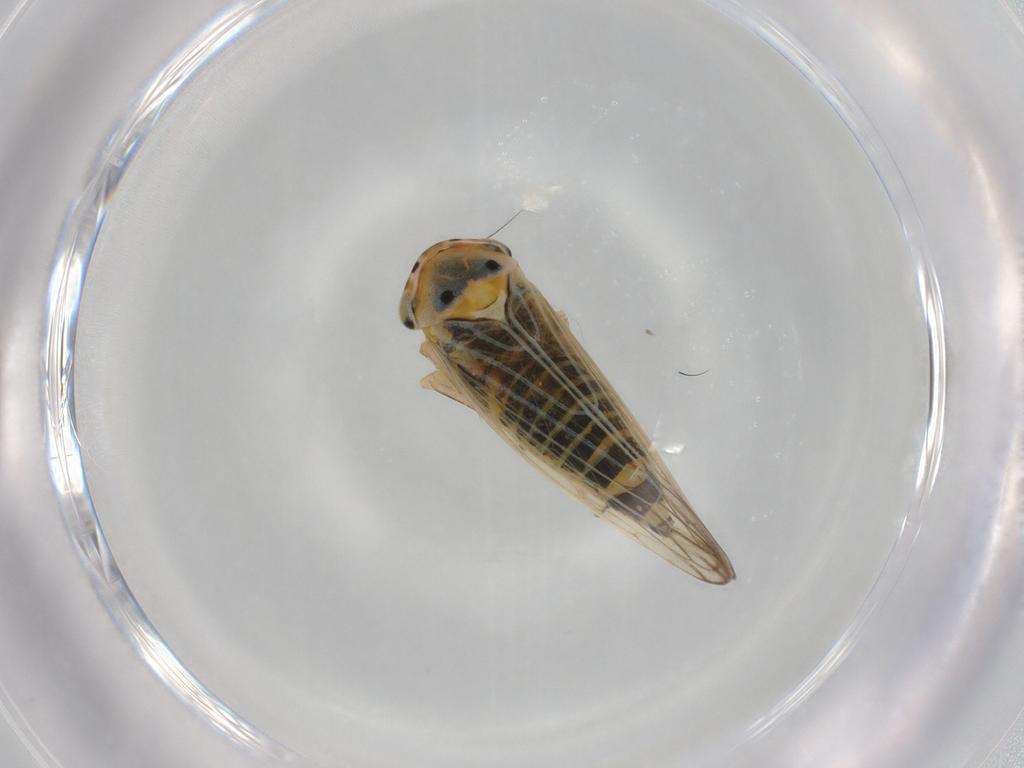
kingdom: Animalia
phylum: Arthropoda
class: Insecta
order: Hemiptera
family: Cicadellidae
